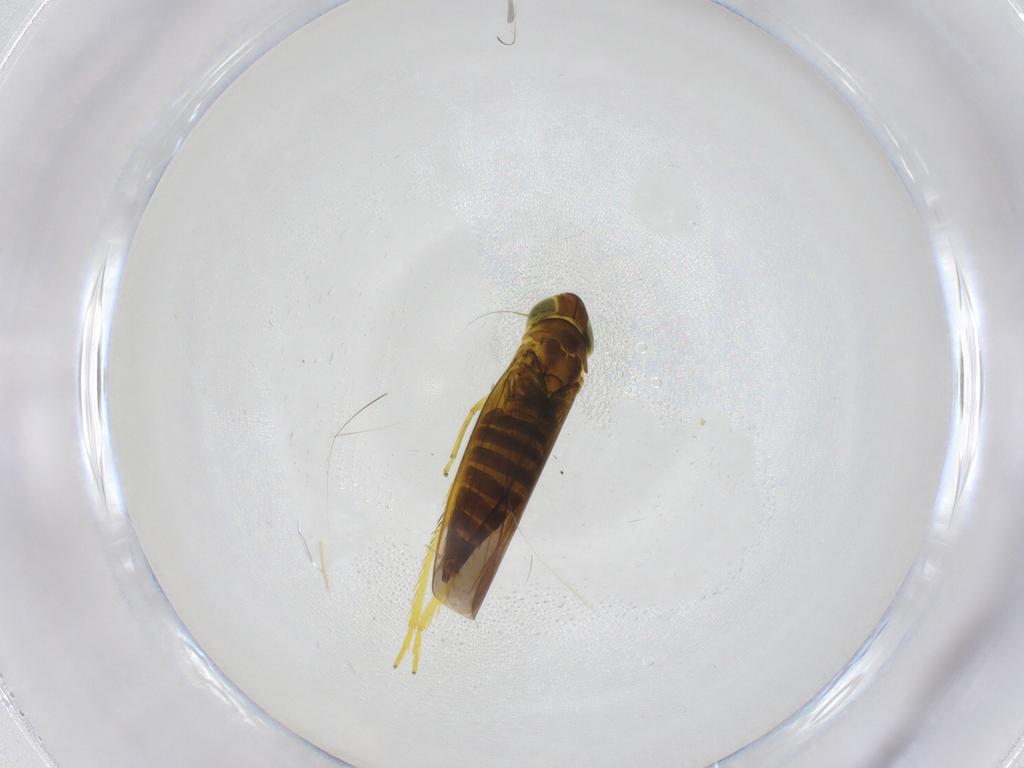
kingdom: Animalia
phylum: Arthropoda
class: Insecta
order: Hemiptera
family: Cicadellidae
